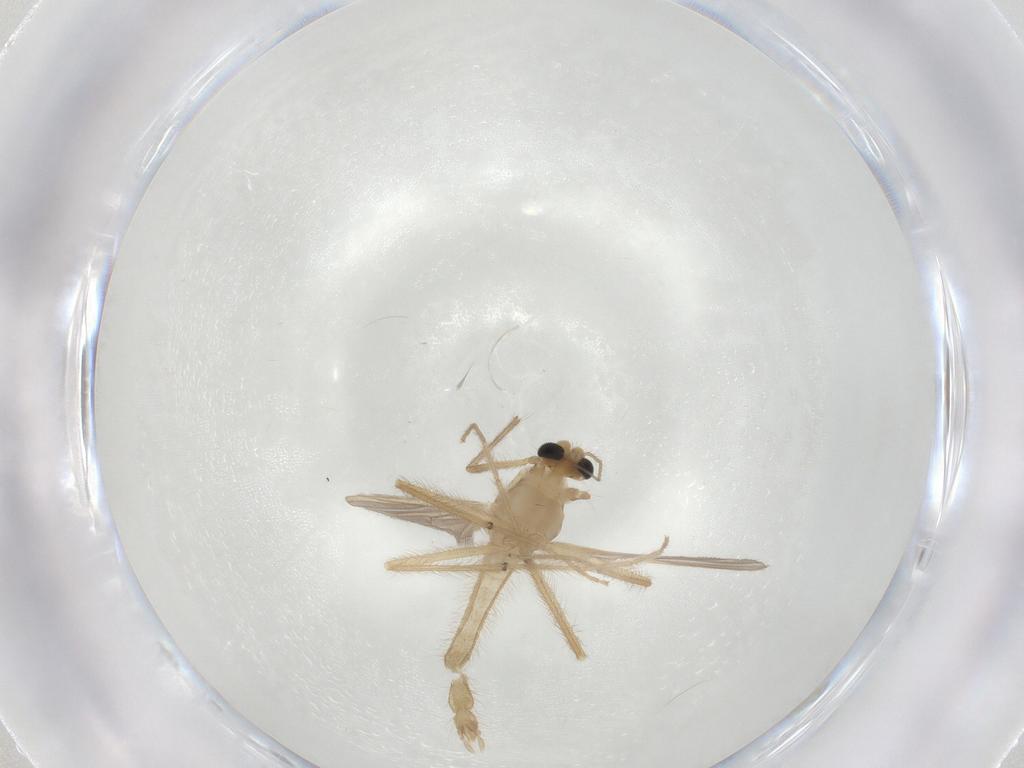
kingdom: Animalia
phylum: Arthropoda
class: Insecta
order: Diptera
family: Chironomidae
